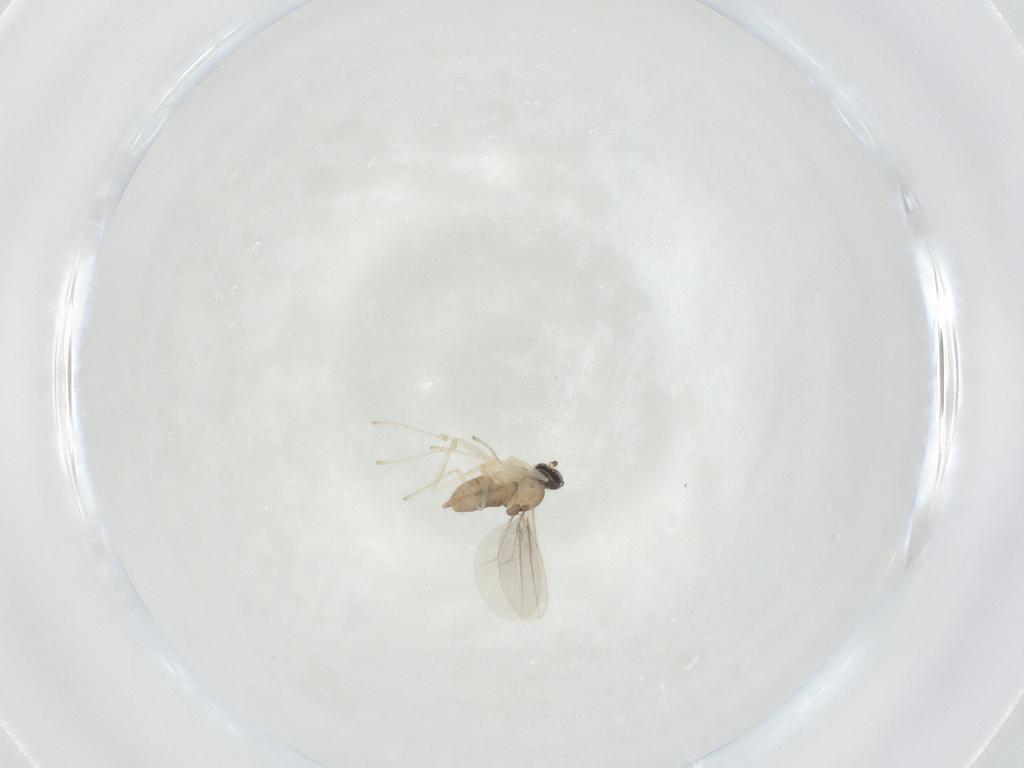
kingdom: Animalia
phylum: Arthropoda
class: Insecta
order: Diptera
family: Cecidomyiidae
